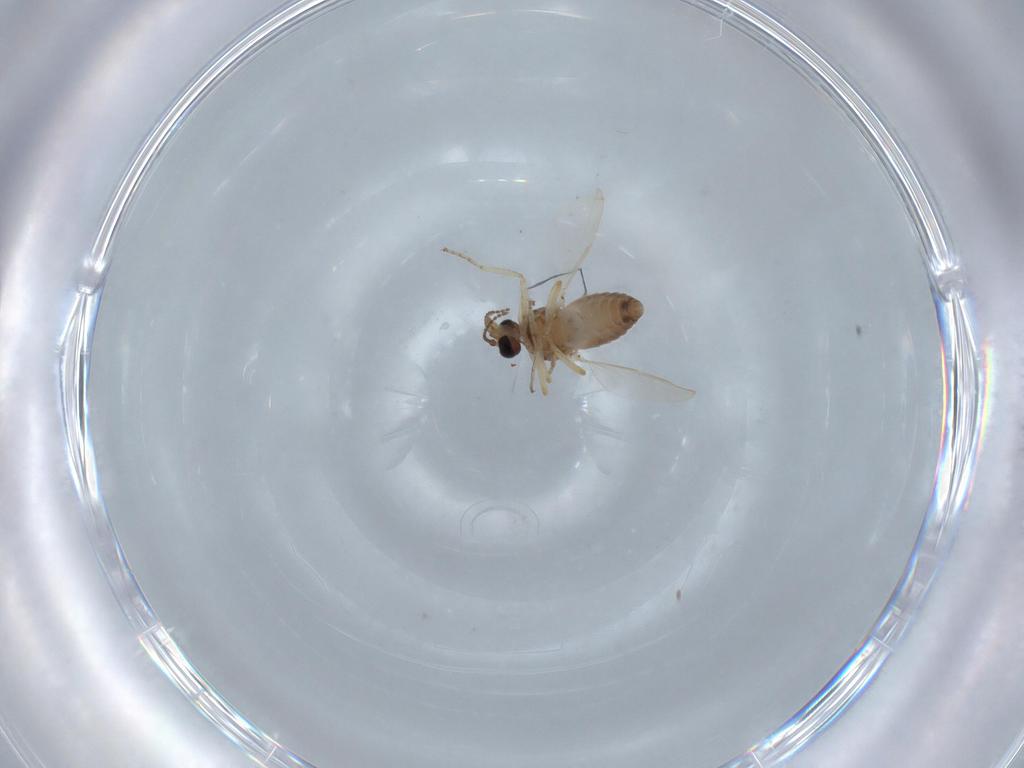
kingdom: Animalia
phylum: Arthropoda
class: Insecta
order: Diptera
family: Ceratopogonidae
